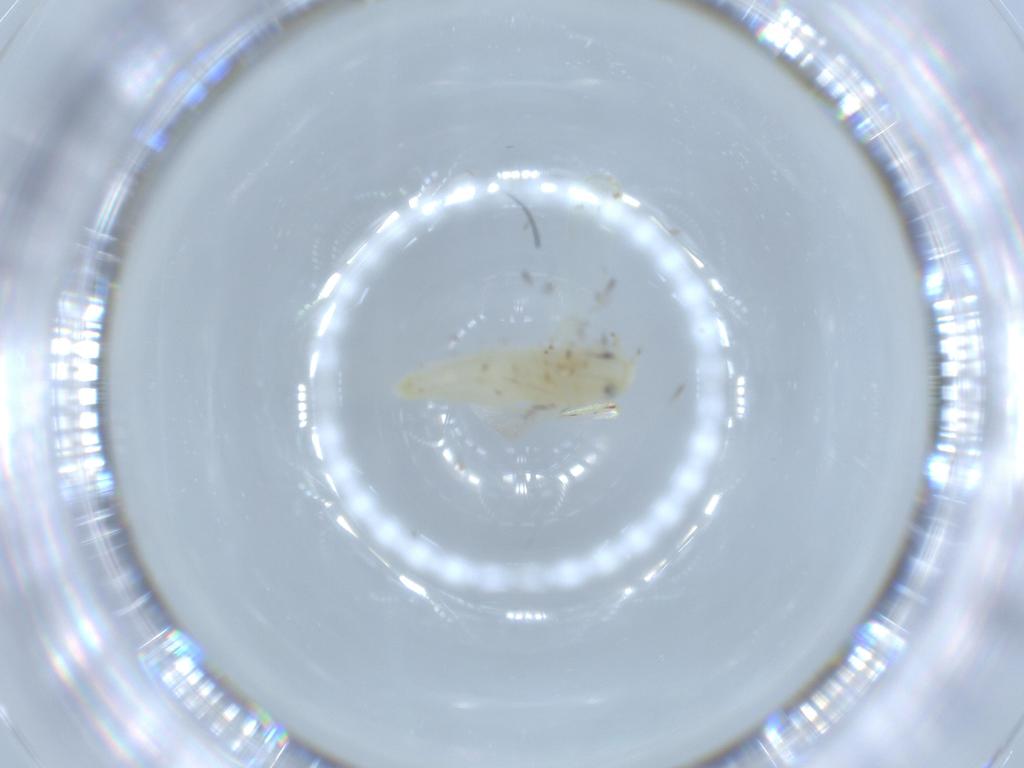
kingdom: Animalia
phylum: Arthropoda
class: Insecta
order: Hemiptera
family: Cicadellidae
